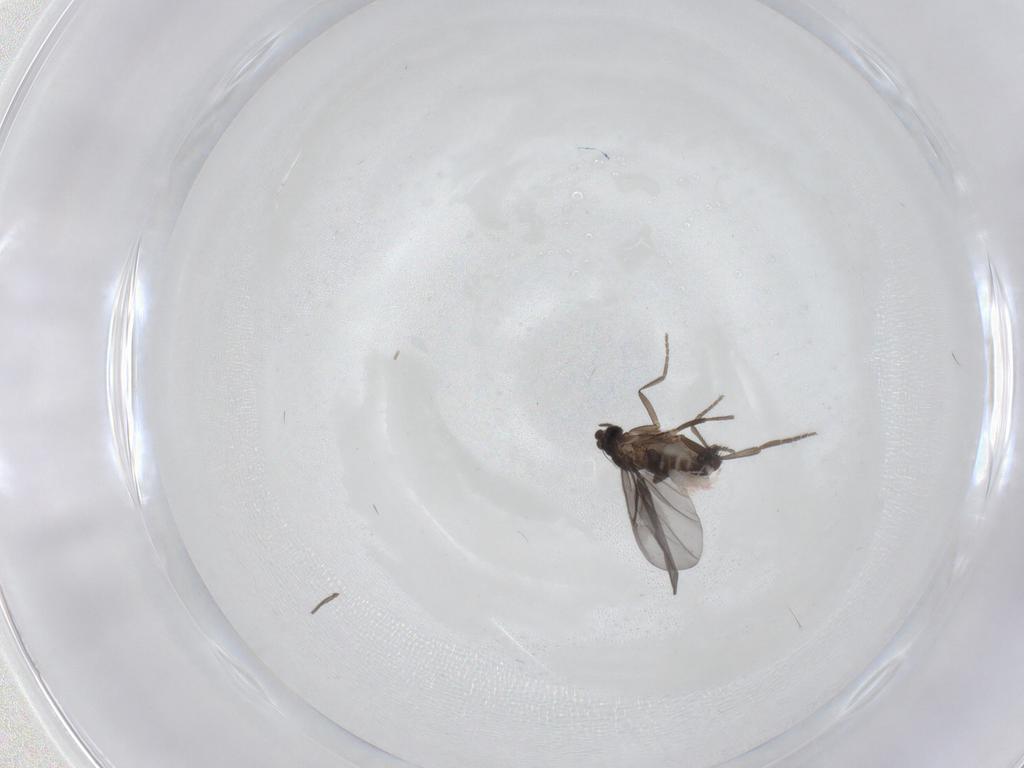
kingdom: Animalia
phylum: Arthropoda
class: Insecta
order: Diptera
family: Phoridae
